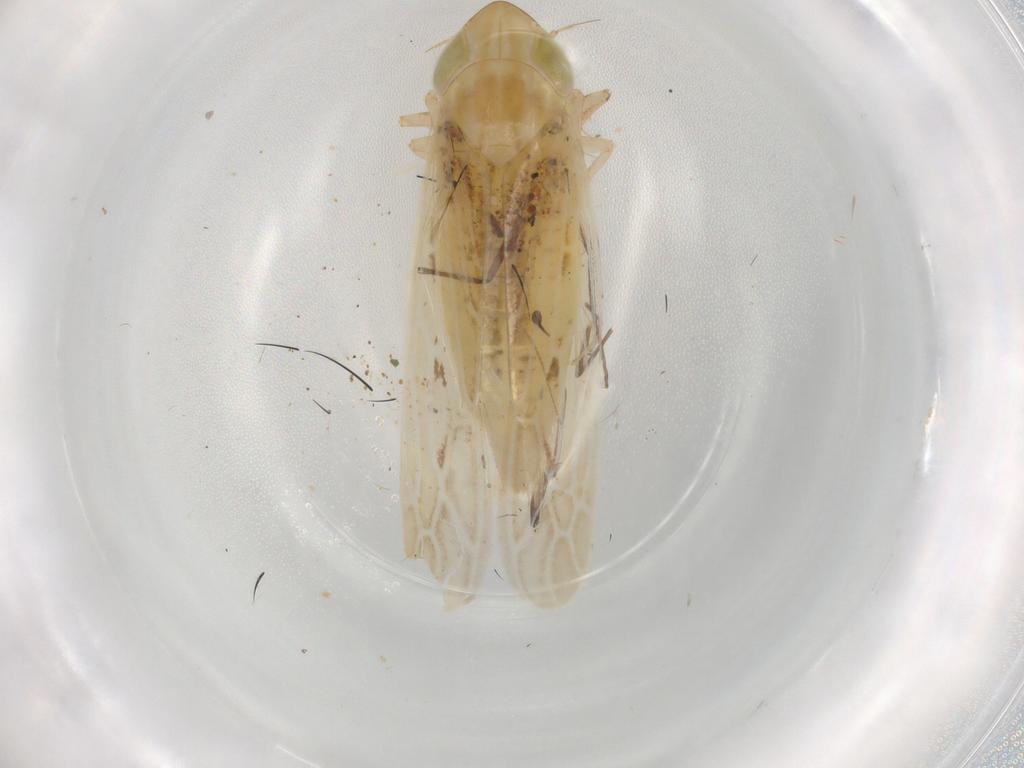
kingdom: Animalia
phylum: Arthropoda
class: Insecta
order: Hemiptera
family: Cicadellidae
